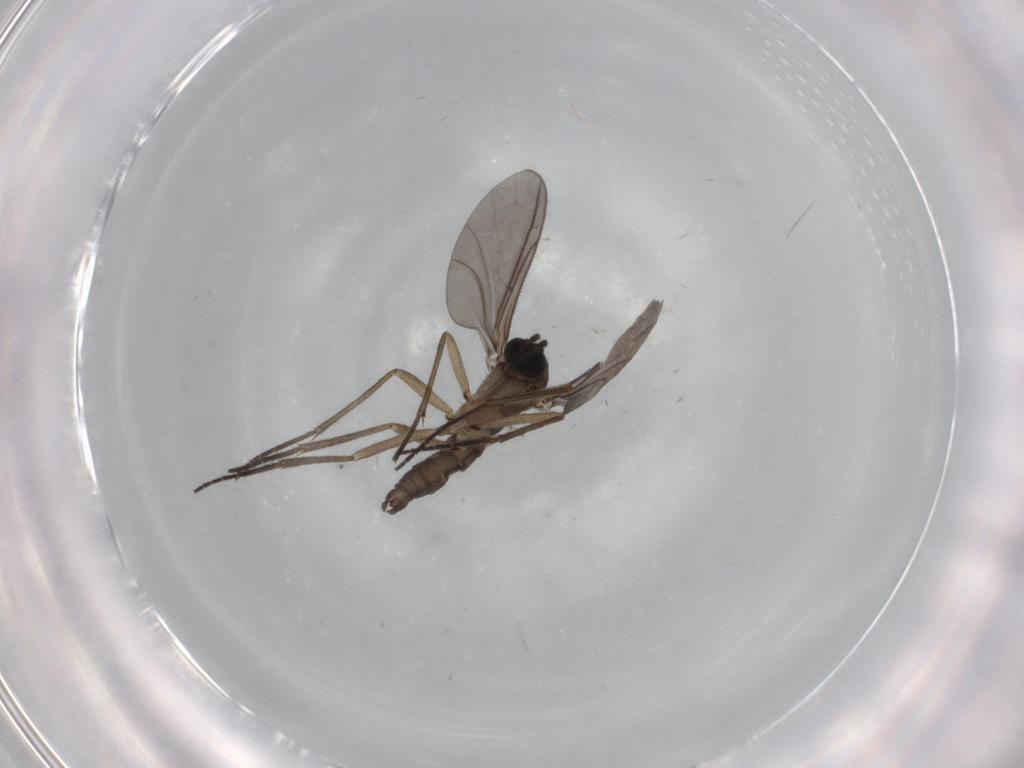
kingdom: Animalia
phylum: Arthropoda
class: Insecta
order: Diptera
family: Sciaridae
